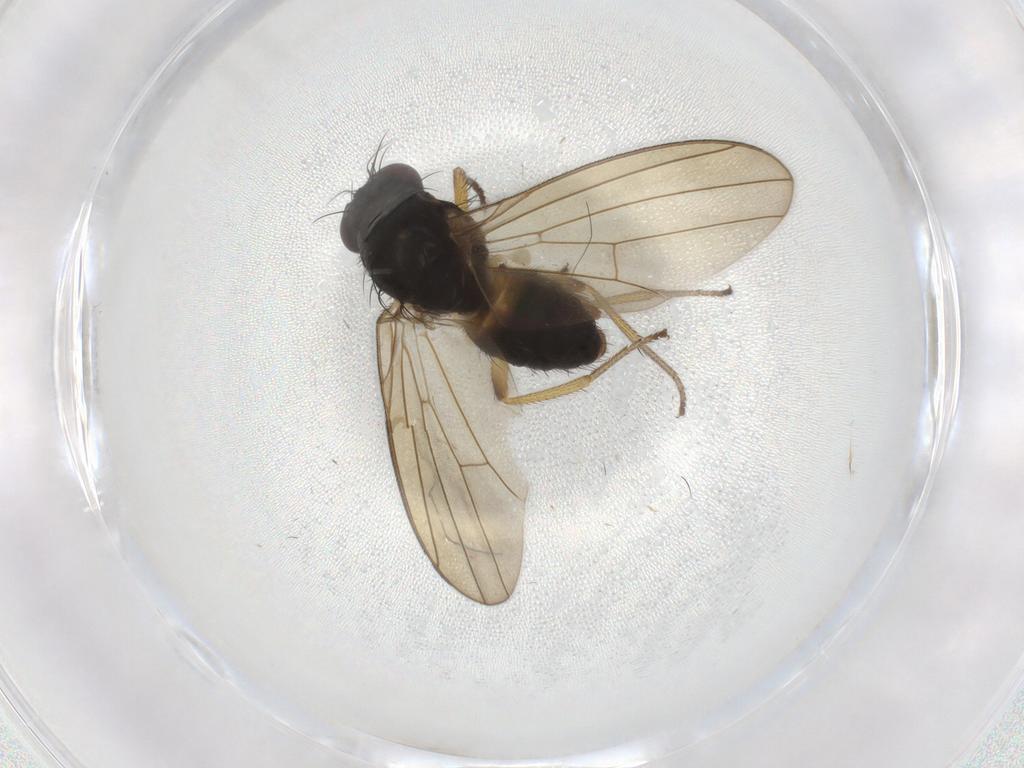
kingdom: Animalia
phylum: Arthropoda
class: Insecta
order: Diptera
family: Lauxaniidae
